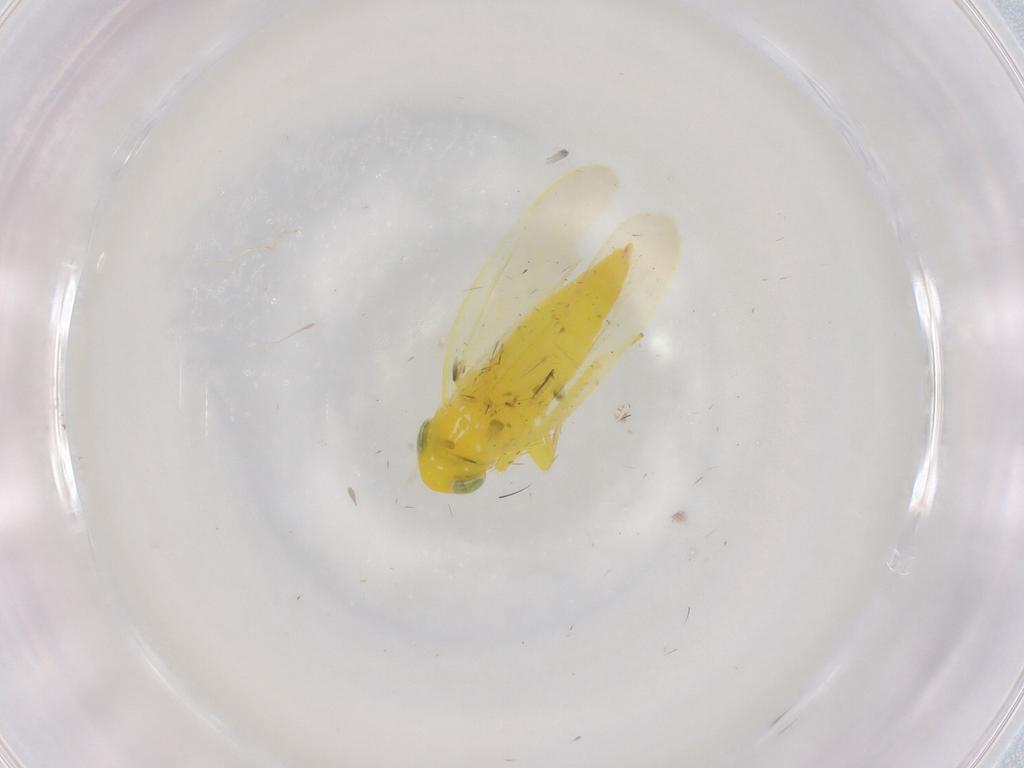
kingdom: Animalia
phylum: Arthropoda
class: Insecta
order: Hemiptera
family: Cicadellidae
